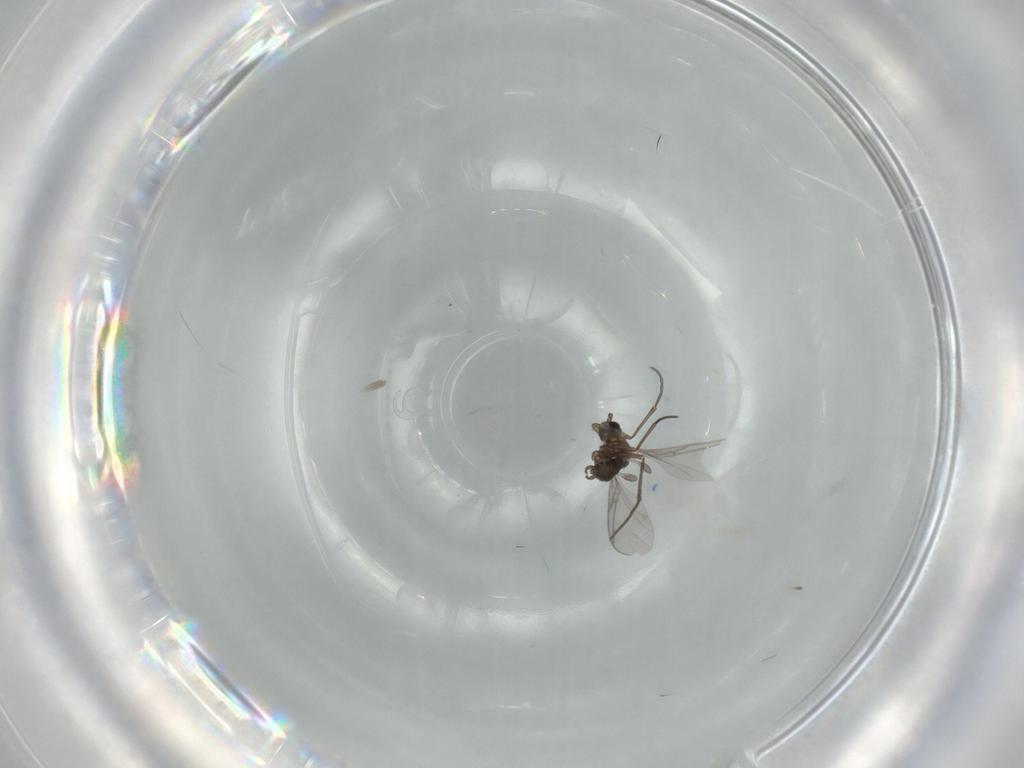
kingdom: Animalia
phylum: Arthropoda
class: Insecta
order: Diptera
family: Sciaridae
